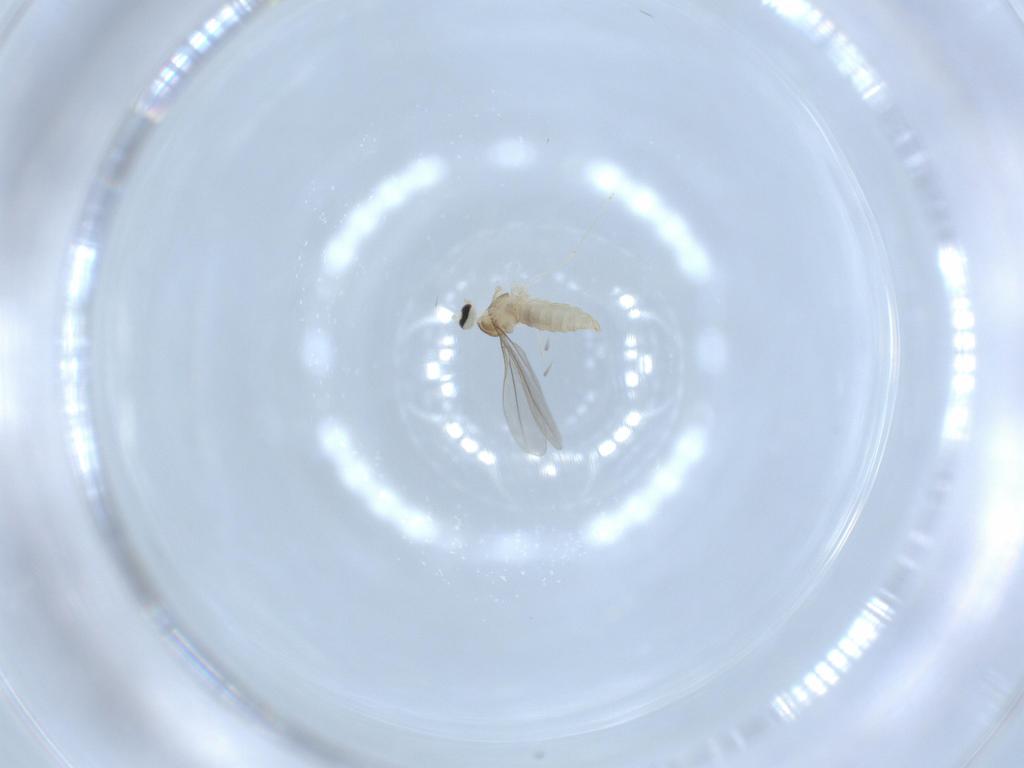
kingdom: Animalia
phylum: Arthropoda
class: Insecta
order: Diptera
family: Cecidomyiidae
